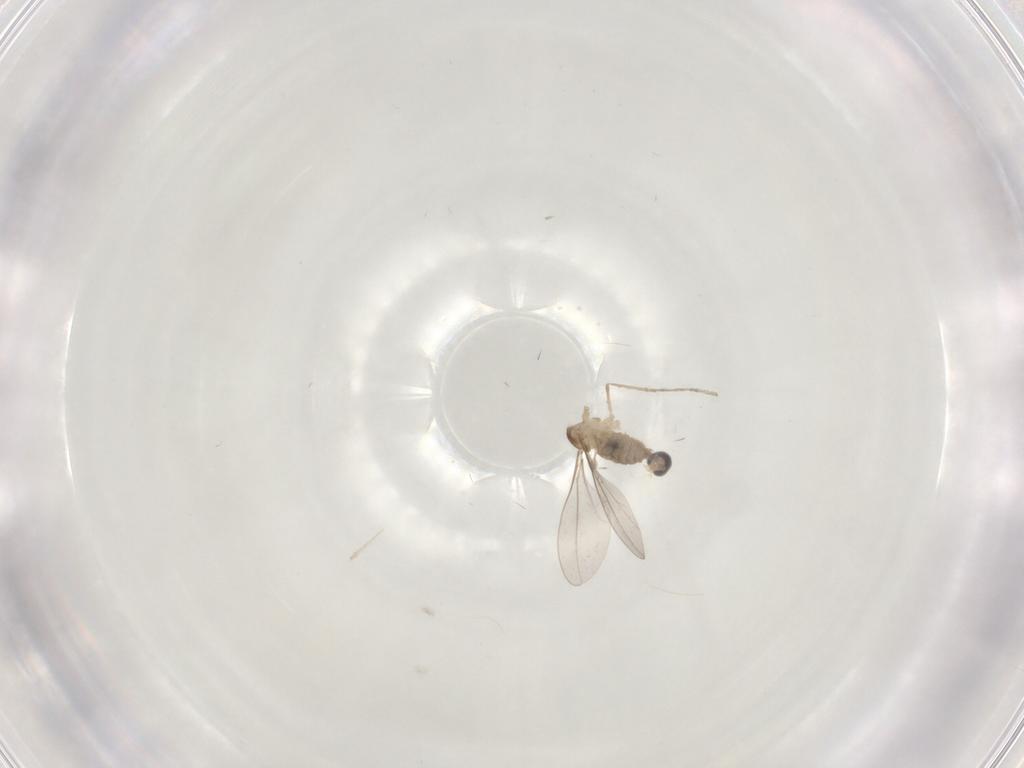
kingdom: Animalia
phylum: Arthropoda
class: Insecta
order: Diptera
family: Cecidomyiidae
